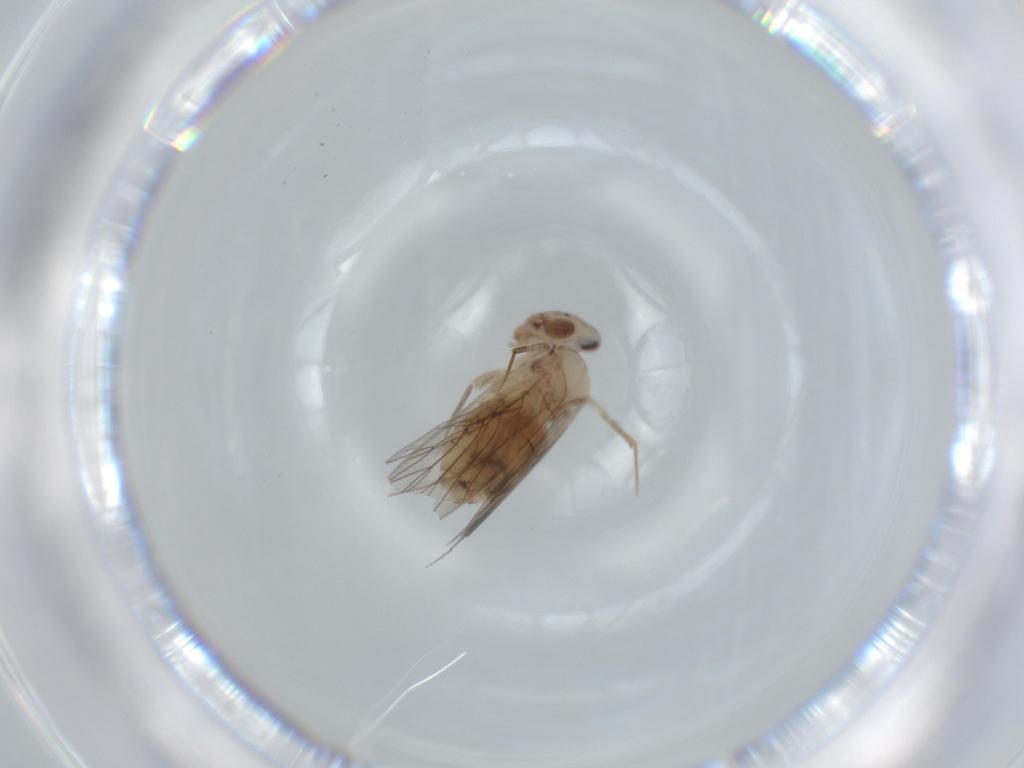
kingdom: Animalia
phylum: Arthropoda
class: Insecta
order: Psocodea
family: Lepidopsocidae
